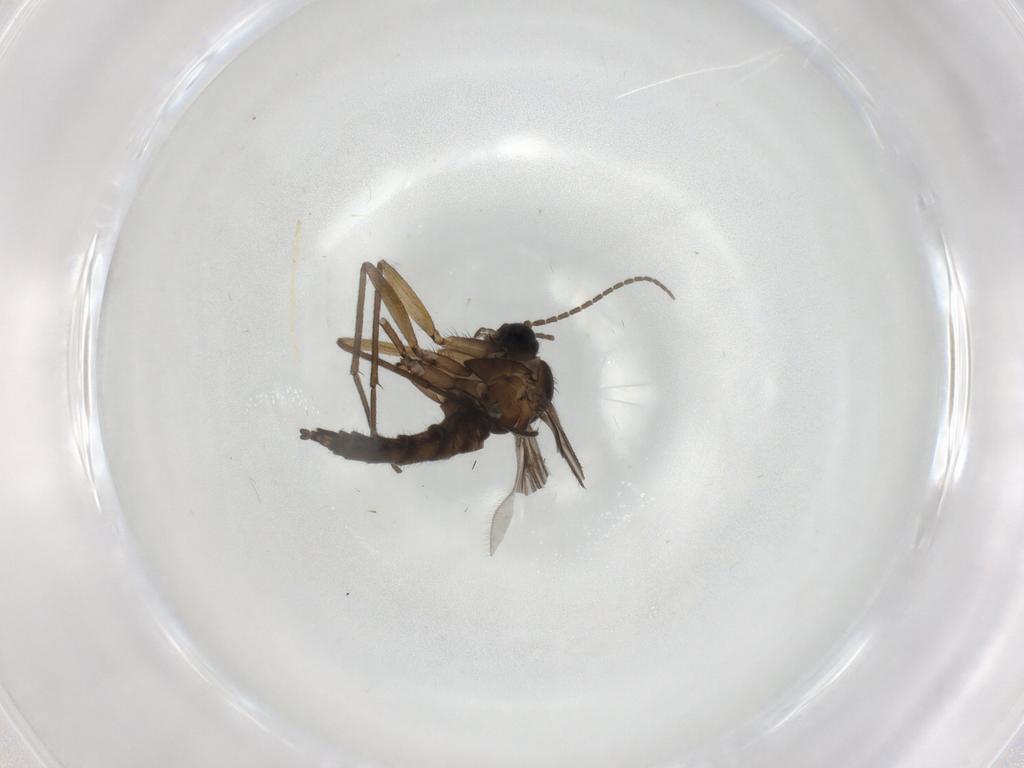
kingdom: Animalia
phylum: Arthropoda
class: Insecta
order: Diptera
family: Sciaridae
